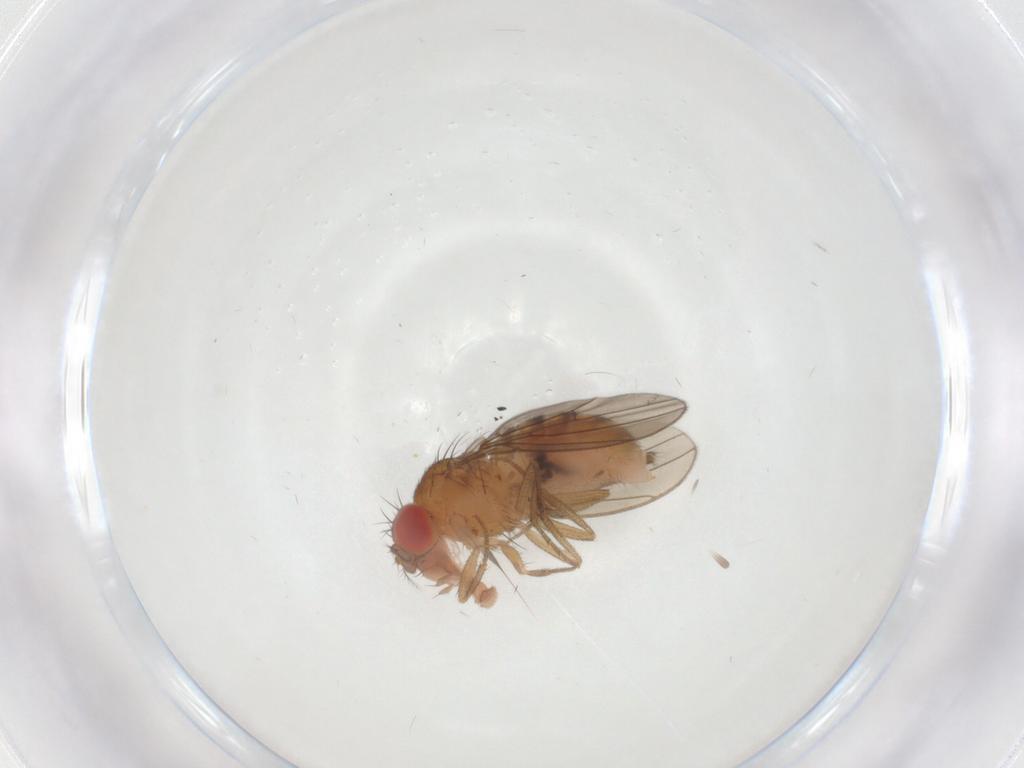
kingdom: Animalia
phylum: Arthropoda
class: Insecta
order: Diptera
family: Drosophilidae
